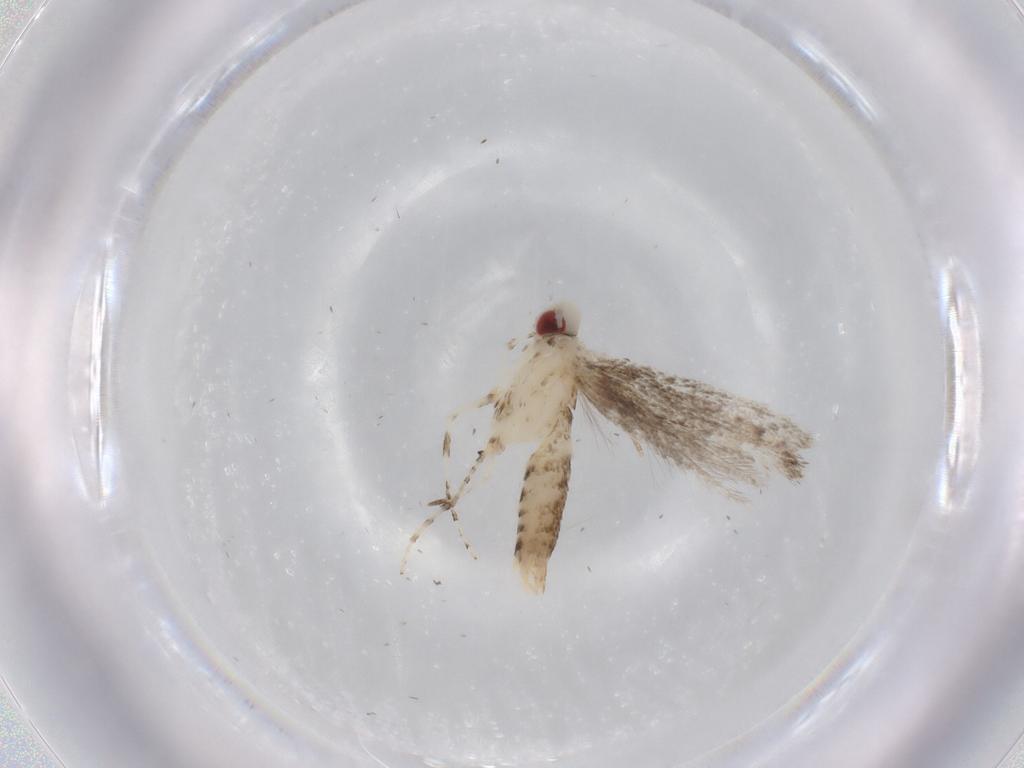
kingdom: Animalia
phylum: Arthropoda
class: Insecta
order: Lepidoptera
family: Gracillariidae
